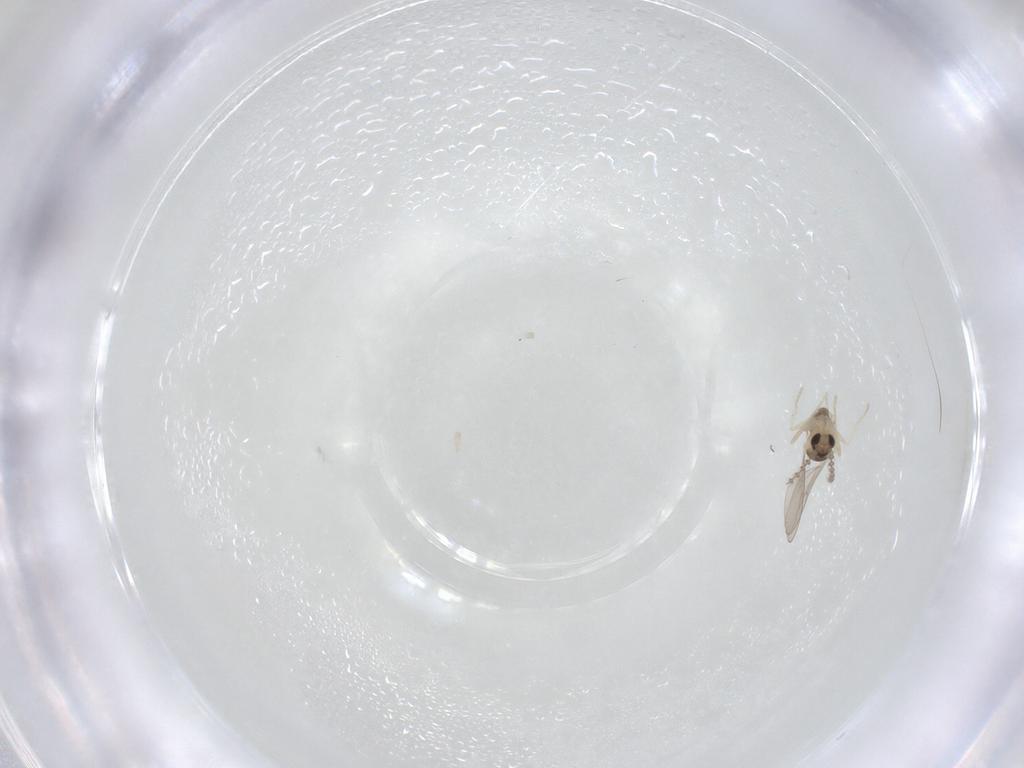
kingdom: Animalia
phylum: Arthropoda
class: Insecta
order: Diptera
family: Cecidomyiidae
